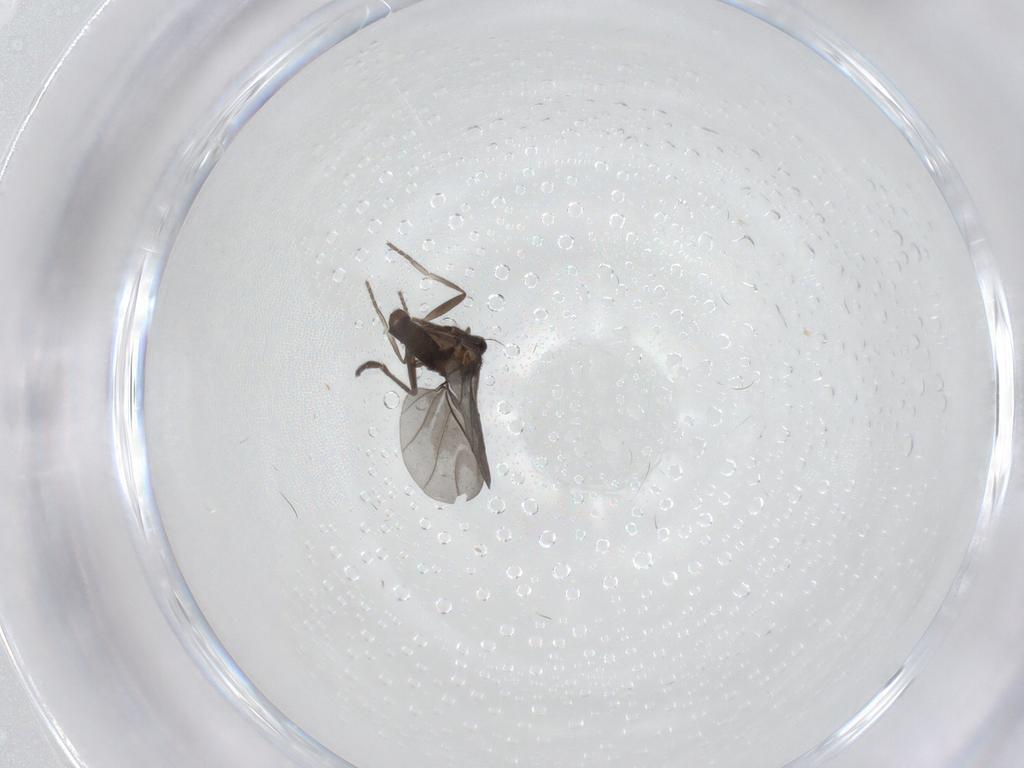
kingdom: Animalia
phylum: Arthropoda
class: Insecta
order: Diptera
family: Phoridae
